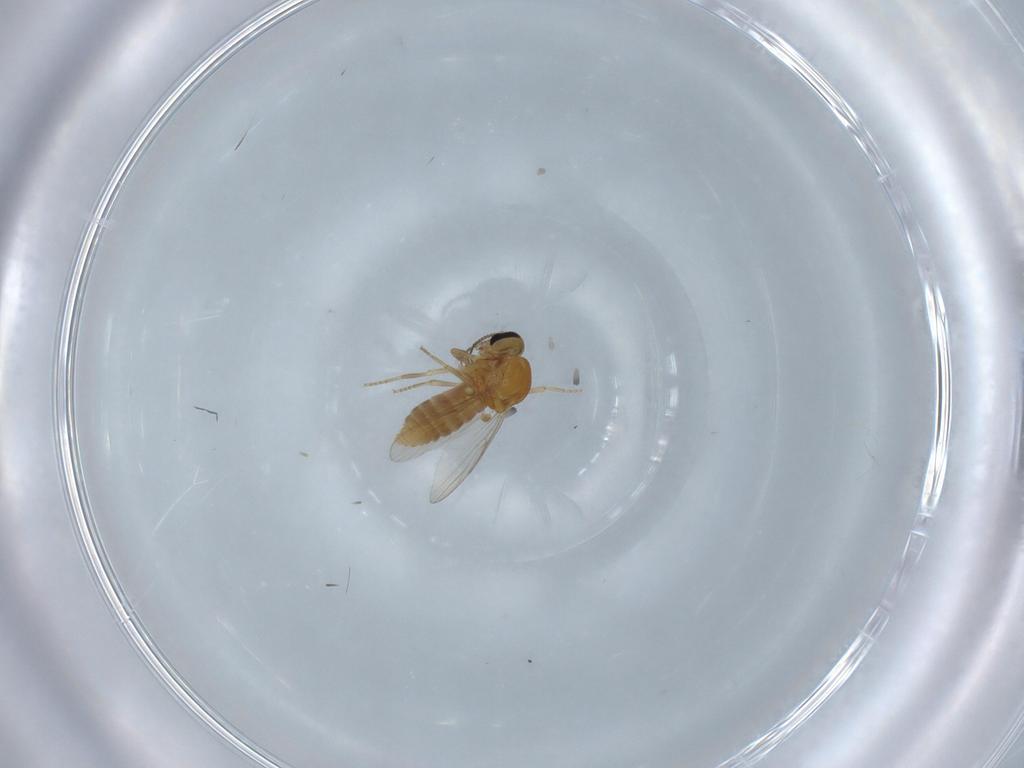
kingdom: Animalia
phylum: Arthropoda
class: Insecta
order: Diptera
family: Ceratopogonidae
